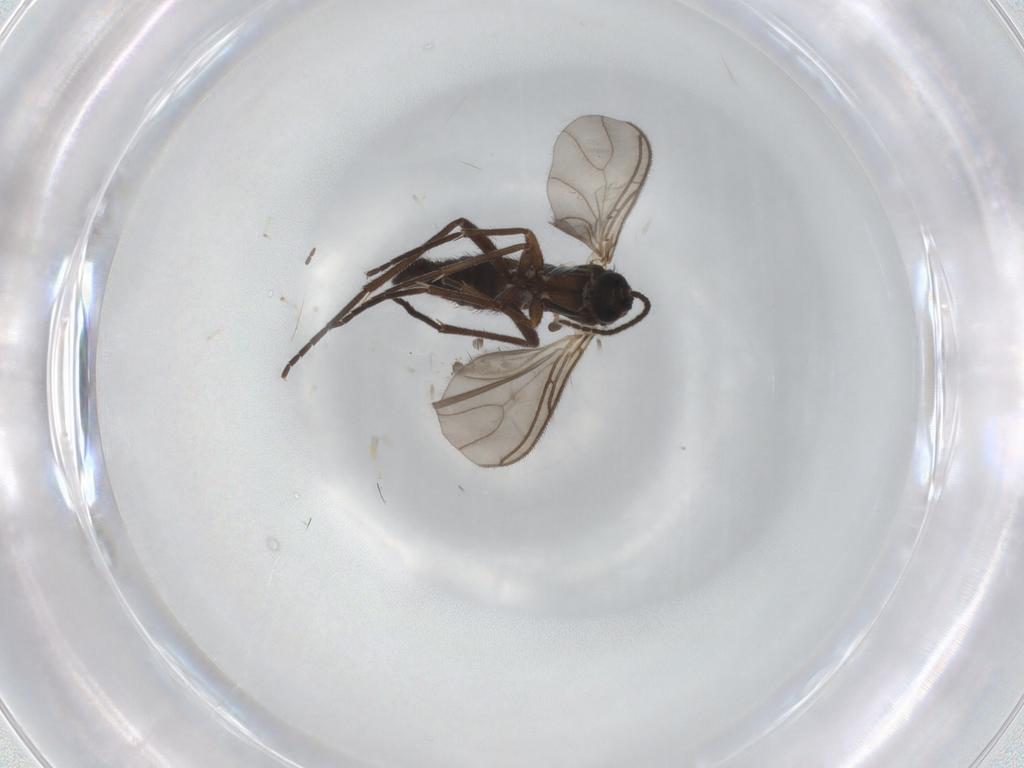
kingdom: Animalia
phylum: Arthropoda
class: Insecta
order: Diptera
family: Sciaridae
